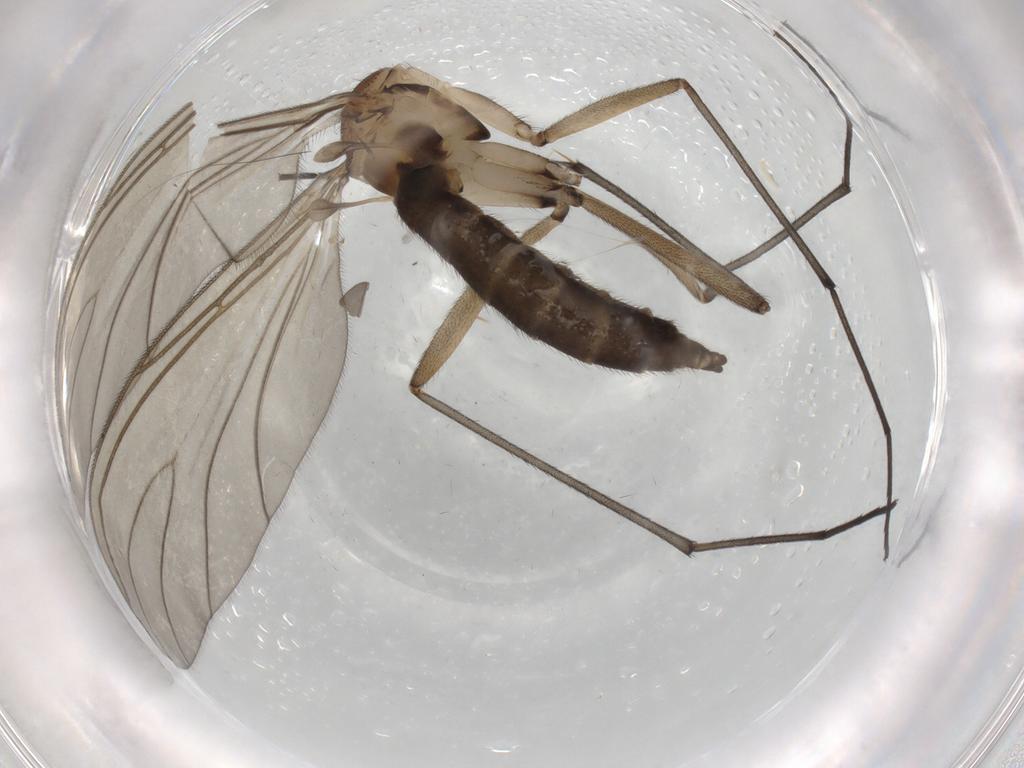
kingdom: Animalia
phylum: Arthropoda
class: Insecta
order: Diptera
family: Sciaridae
